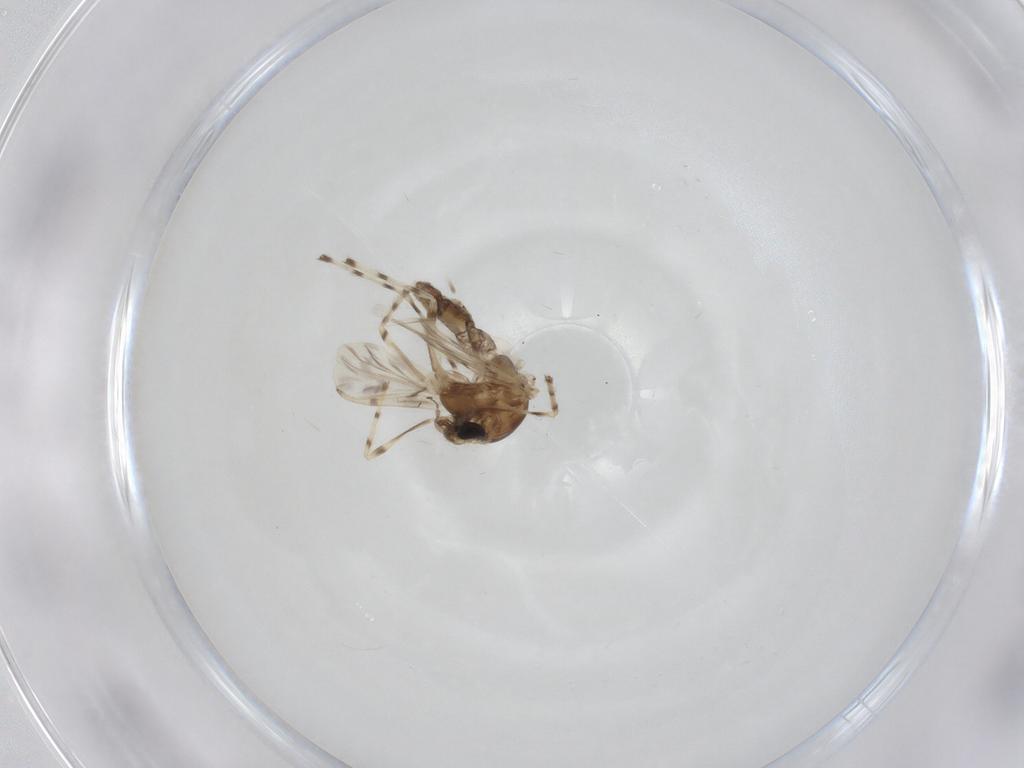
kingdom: Animalia
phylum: Arthropoda
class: Insecta
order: Diptera
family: Chironomidae
